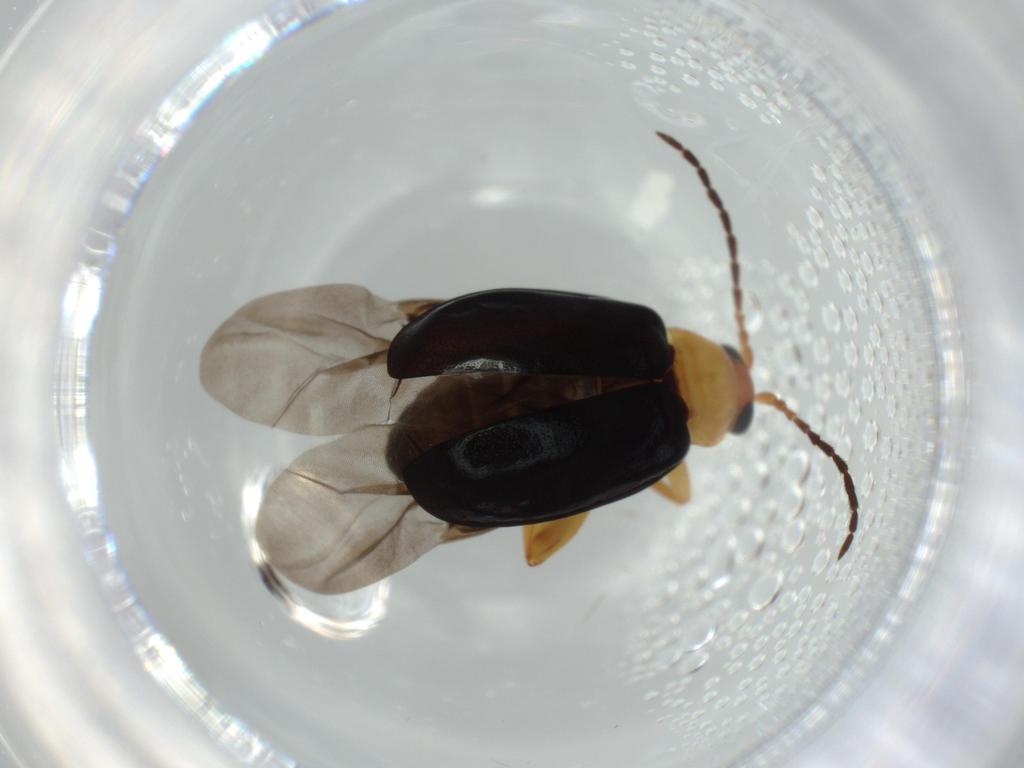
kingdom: Animalia
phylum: Arthropoda
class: Insecta
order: Coleoptera
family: Chrysomelidae
